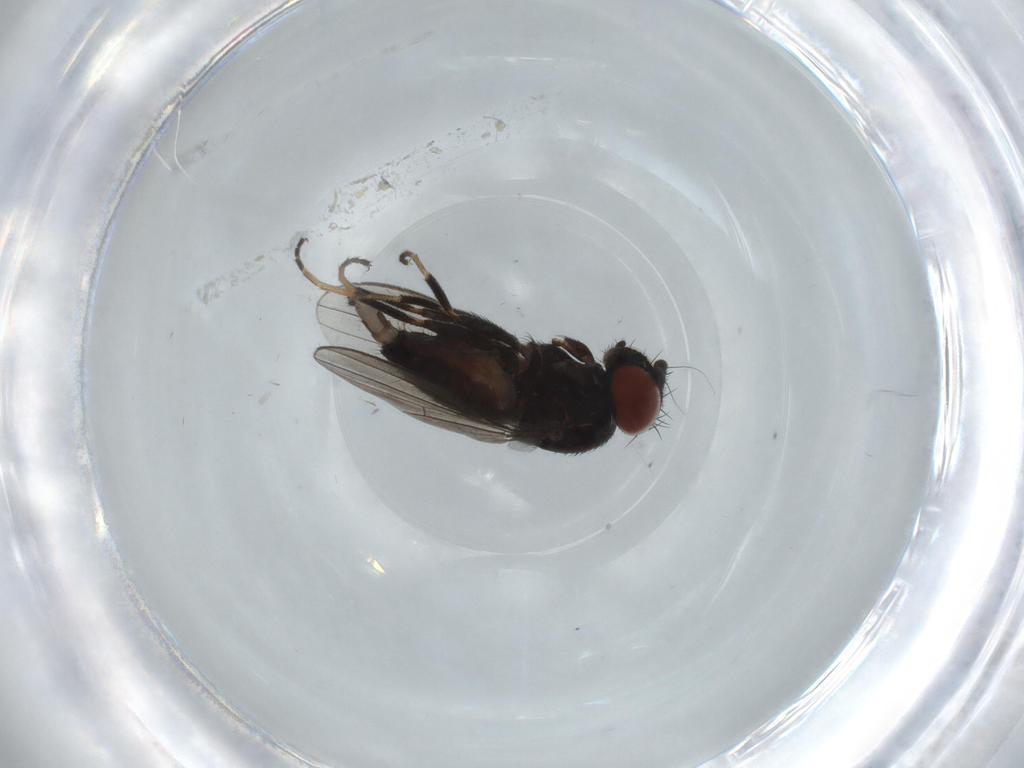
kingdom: Animalia
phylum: Arthropoda
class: Insecta
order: Diptera
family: Milichiidae
